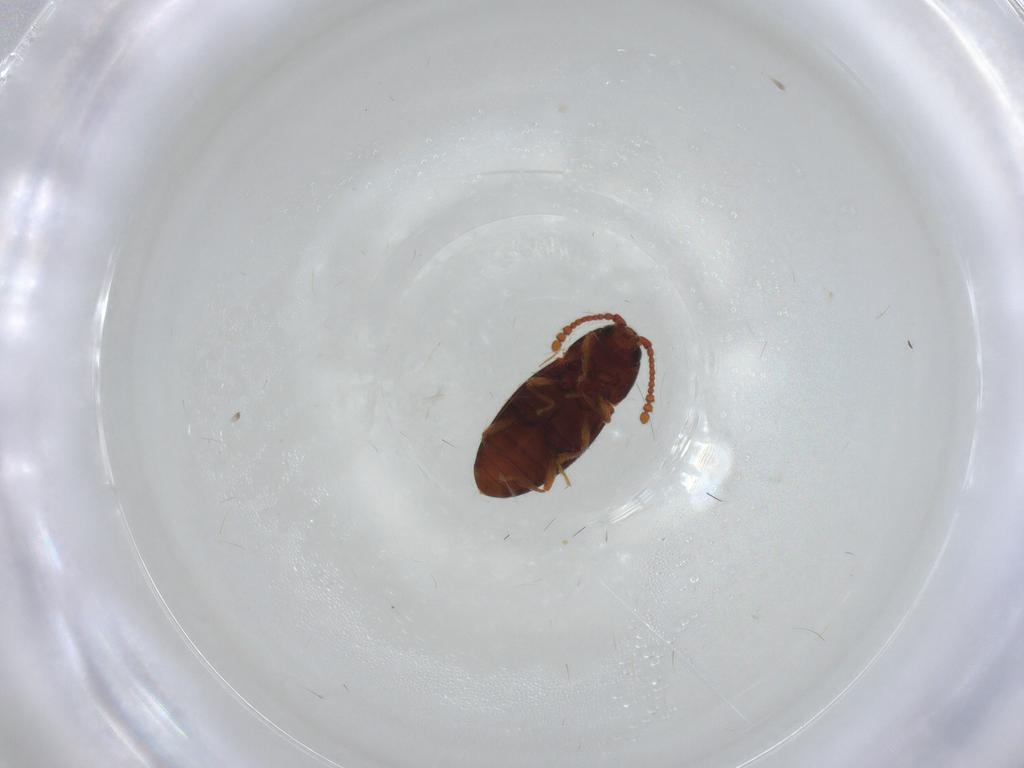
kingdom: Animalia
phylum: Arthropoda
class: Insecta
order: Coleoptera
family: Cryptophagidae
